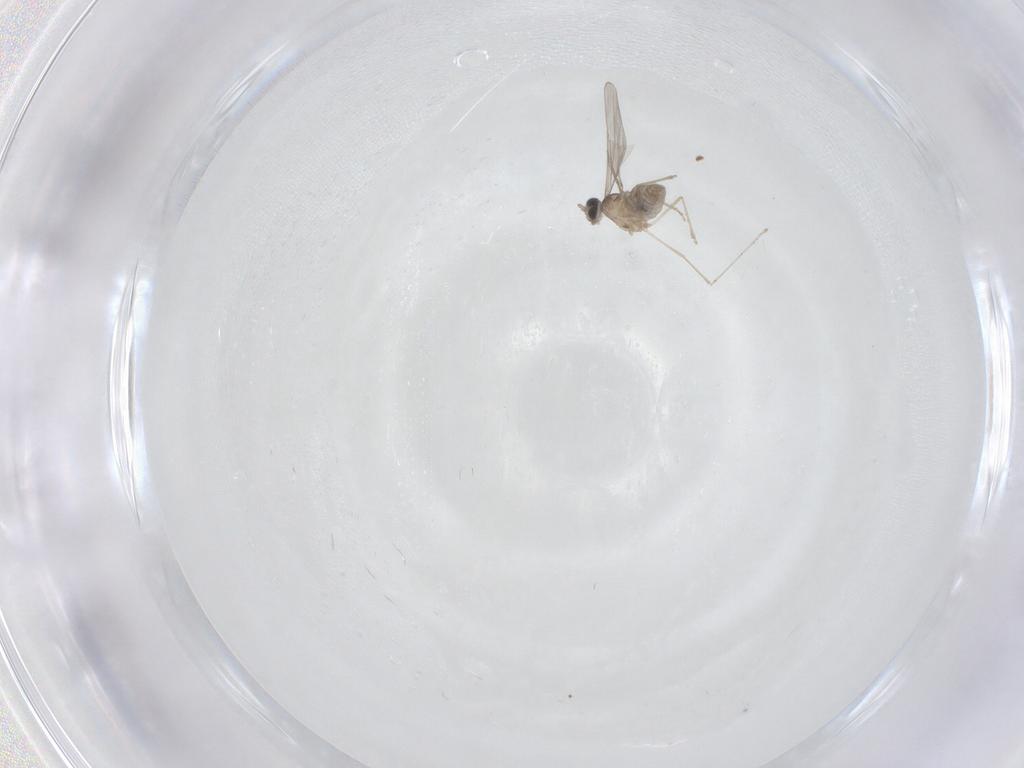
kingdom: Animalia
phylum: Arthropoda
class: Insecta
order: Diptera
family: Cecidomyiidae
